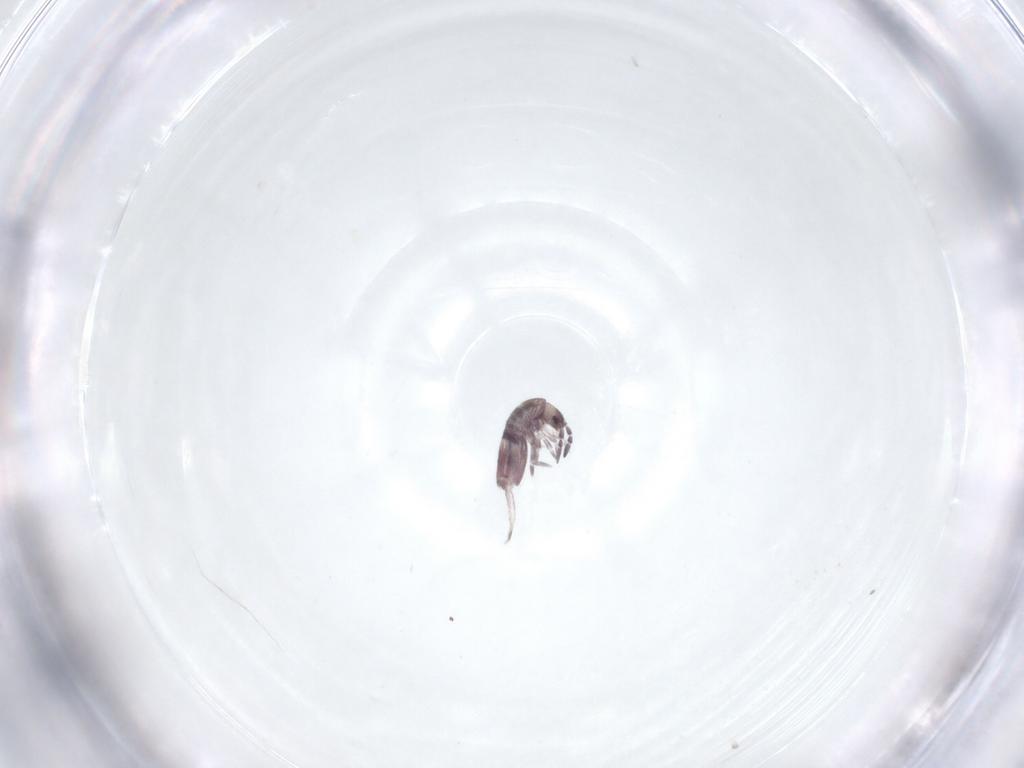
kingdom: Animalia
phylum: Arthropoda
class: Collembola
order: Entomobryomorpha
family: Entomobryidae
